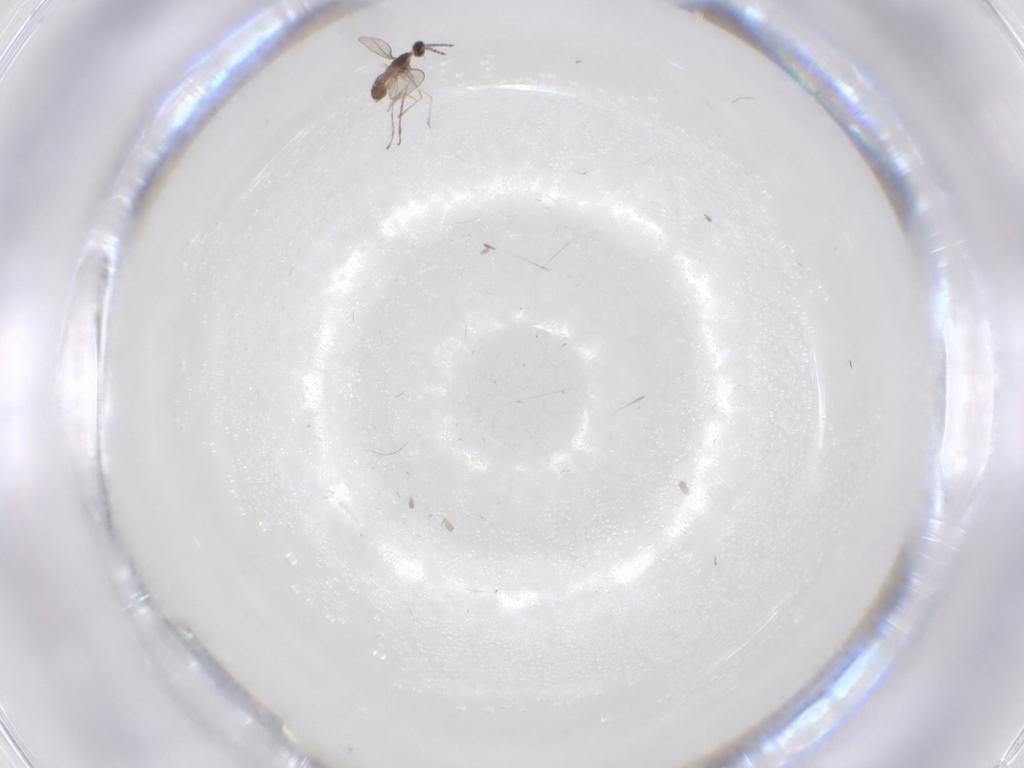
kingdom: Animalia
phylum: Arthropoda
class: Insecta
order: Diptera
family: Cecidomyiidae
